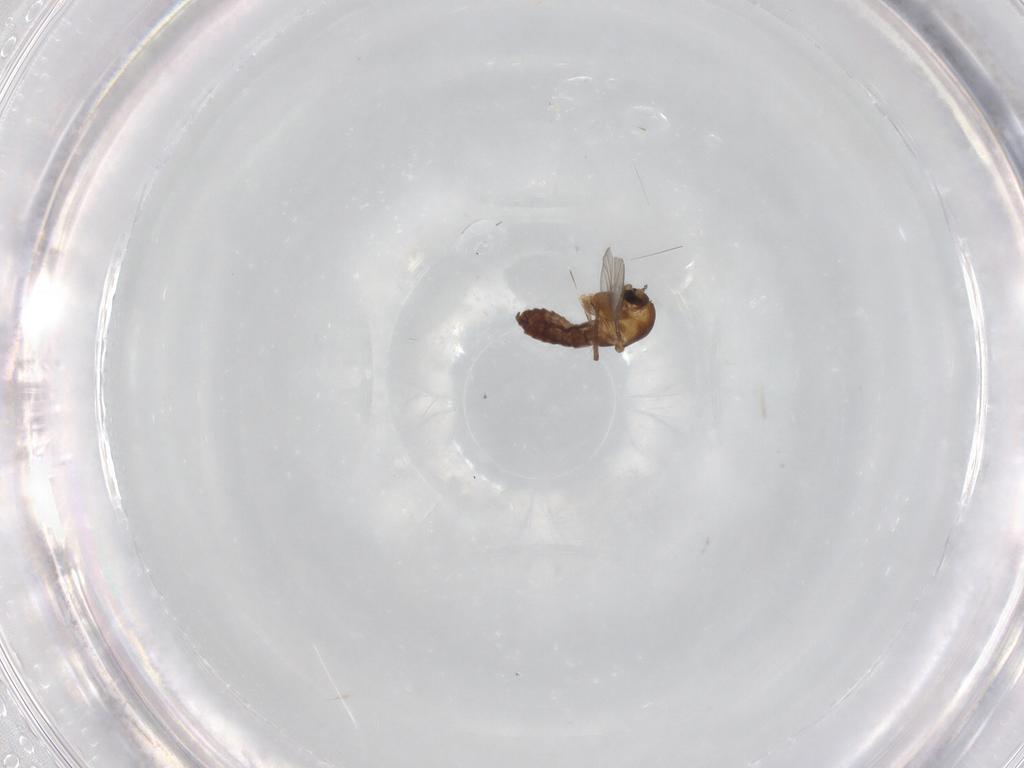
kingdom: Animalia
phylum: Arthropoda
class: Insecta
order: Diptera
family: Chironomidae
